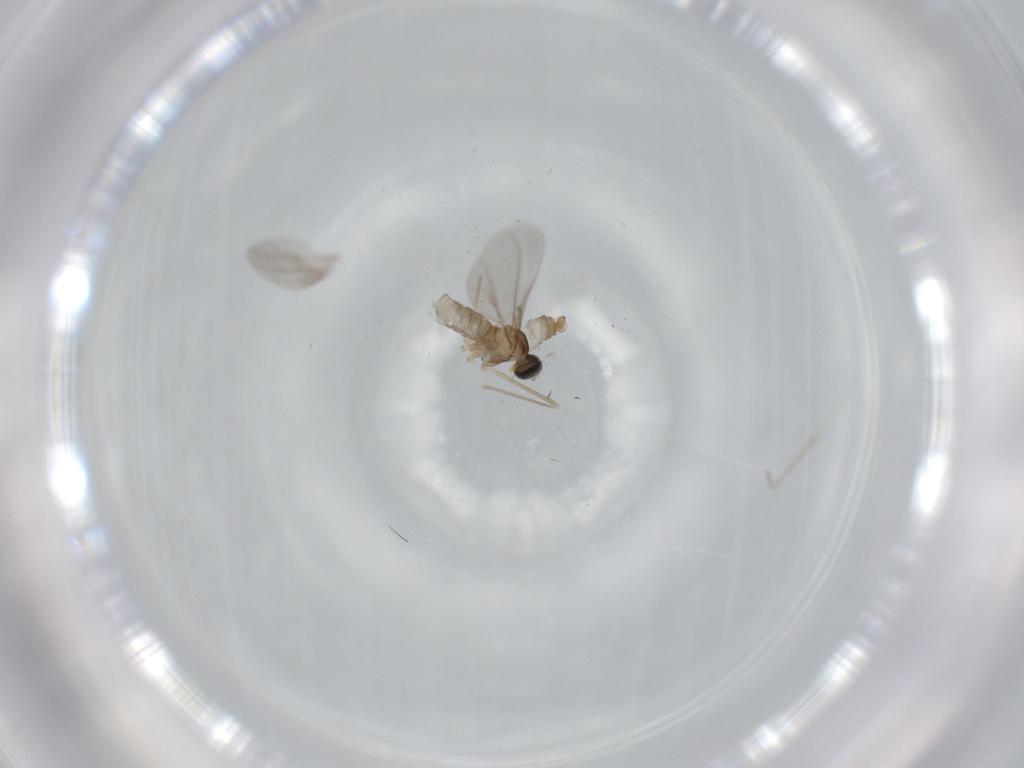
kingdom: Animalia
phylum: Arthropoda
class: Insecta
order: Diptera
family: Cecidomyiidae
